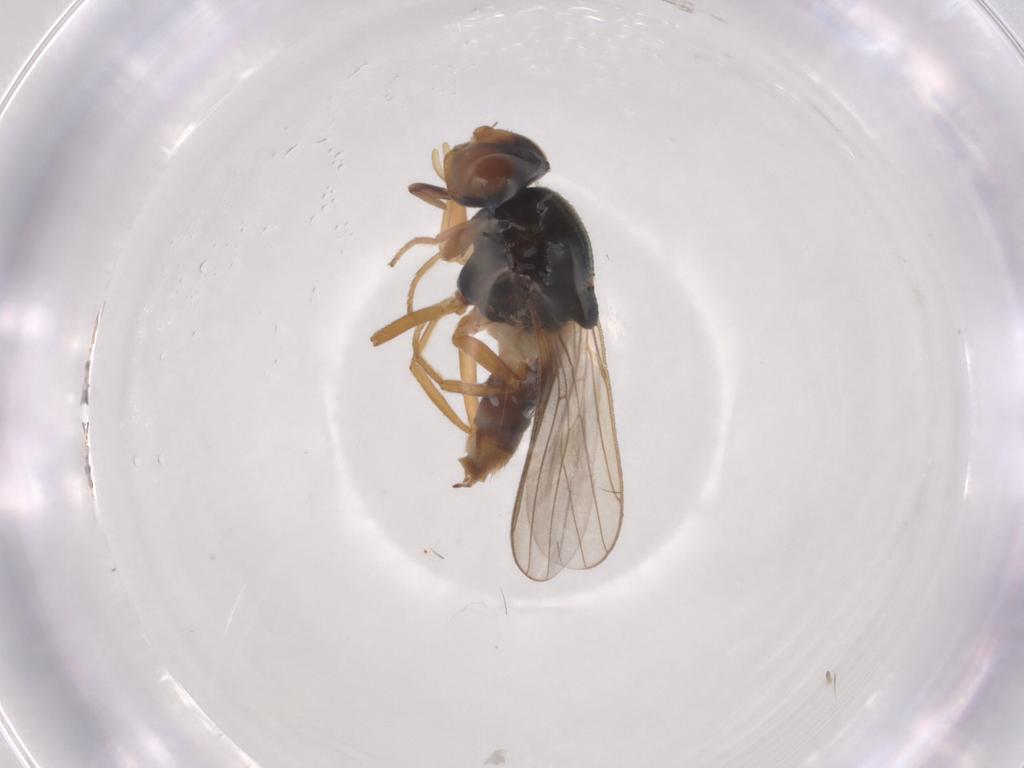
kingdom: Animalia
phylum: Arthropoda
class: Insecta
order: Diptera
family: Chloropidae
